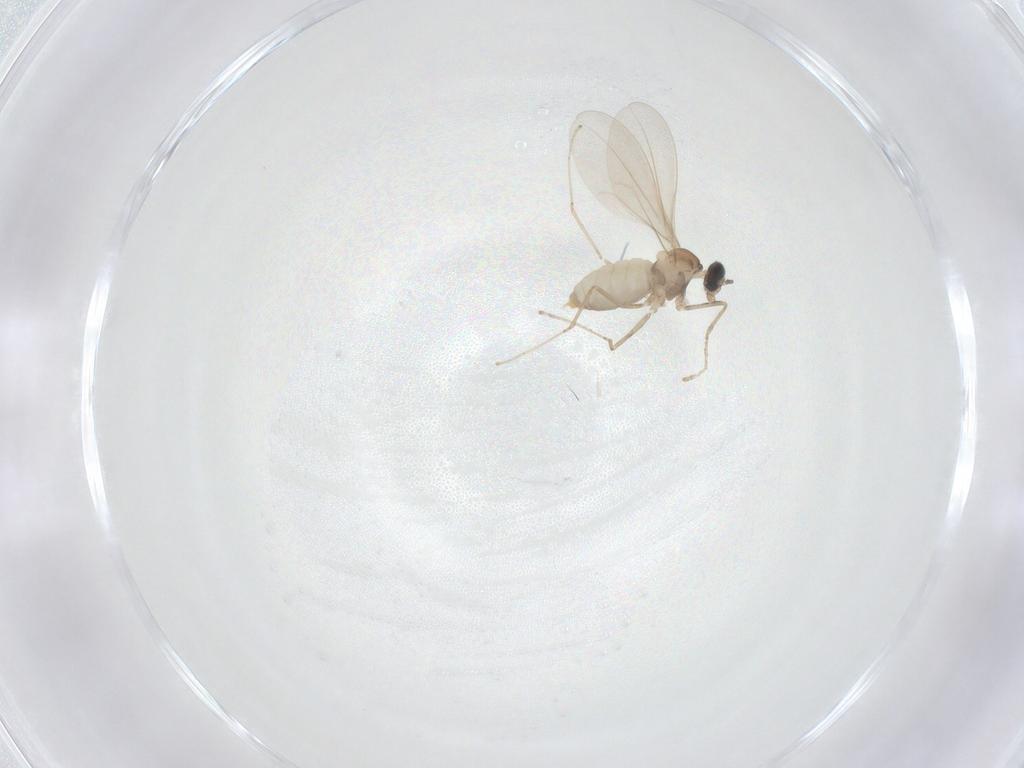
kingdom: Animalia
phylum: Arthropoda
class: Insecta
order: Diptera
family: Cecidomyiidae
